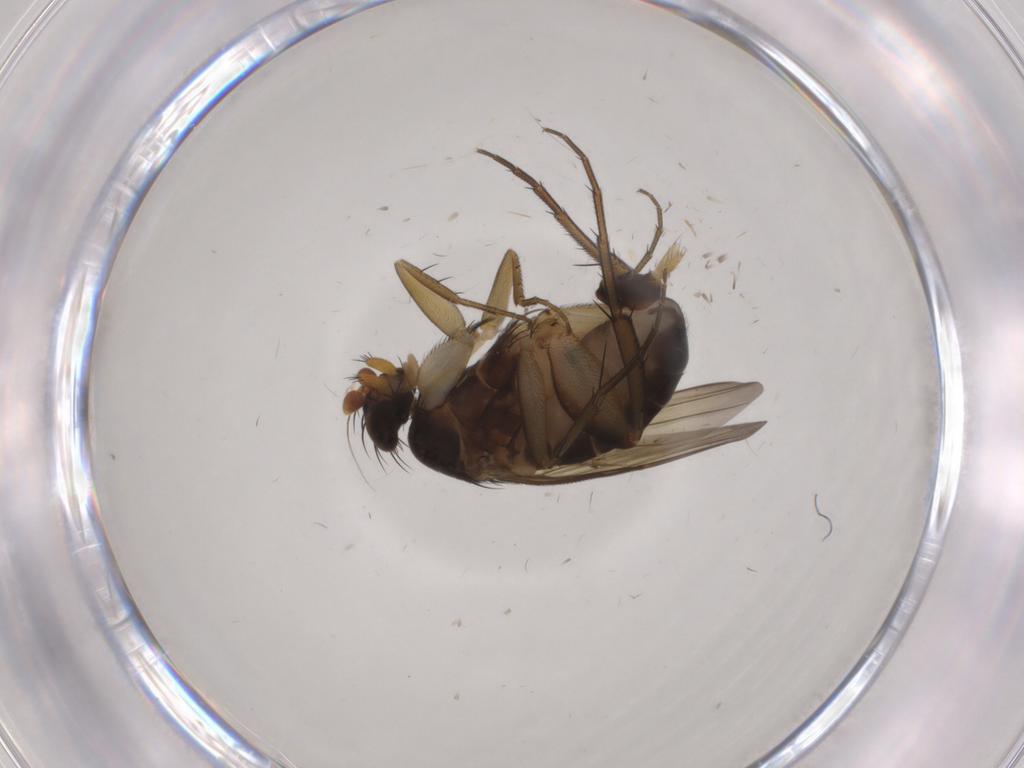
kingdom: Animalia
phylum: Arthropoda
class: Insecta
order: Diptera
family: Phoridae
